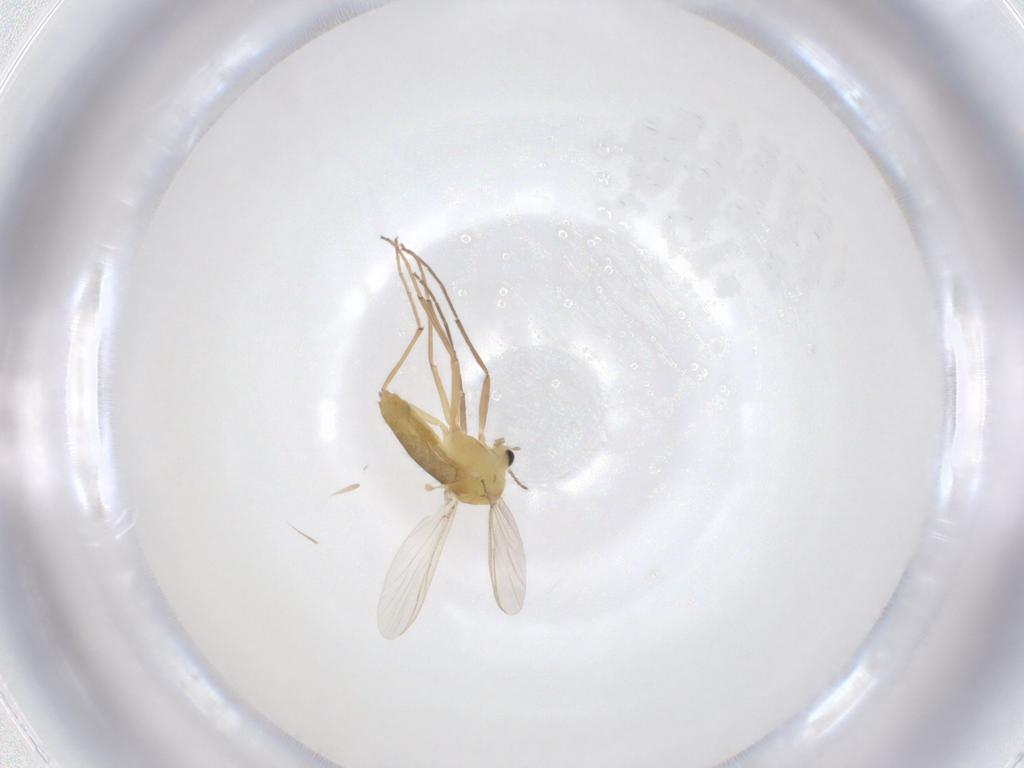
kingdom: Animalia
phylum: Arthropoda
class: Insecta
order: Diptera
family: Chironomidae
